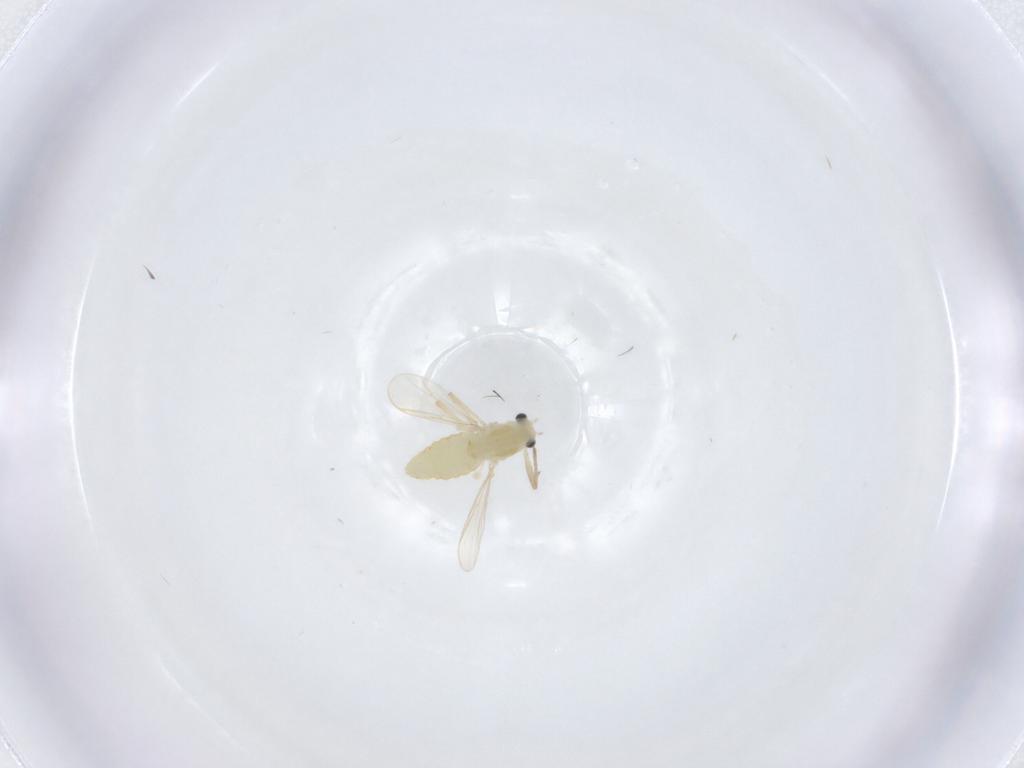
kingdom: Animalia
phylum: Arthropoda
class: Insecta
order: Diptera
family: Chironomidae
